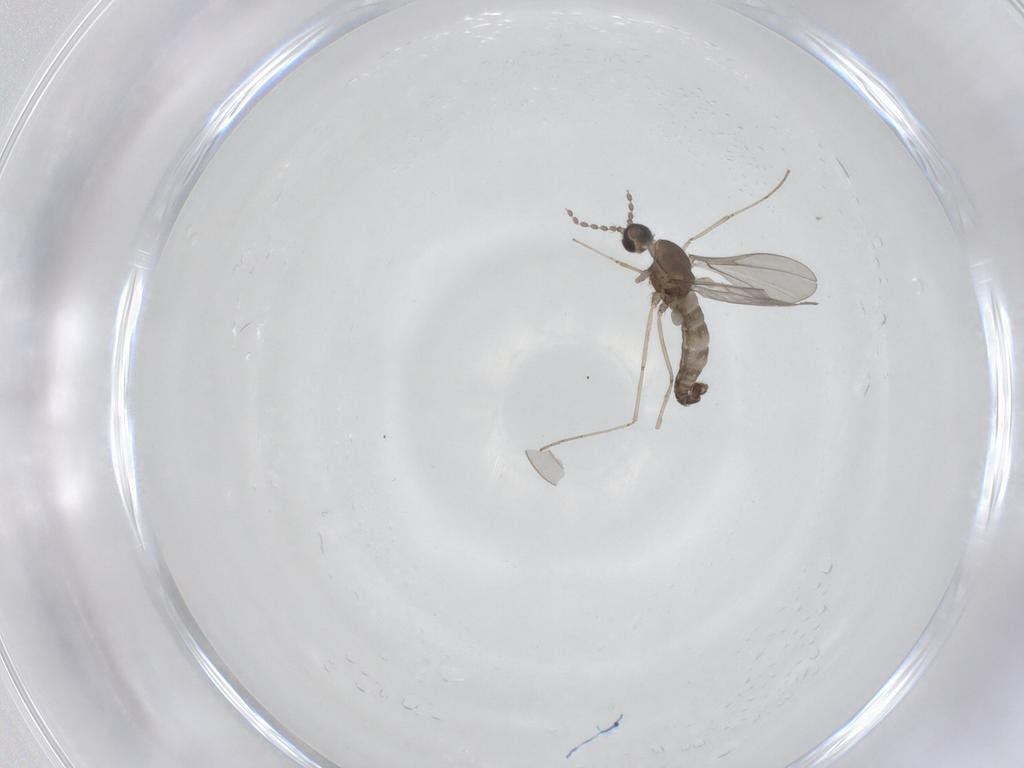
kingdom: Animalia
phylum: Arthropoda
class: Insecta
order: Diptera
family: Cecidomyiidae
